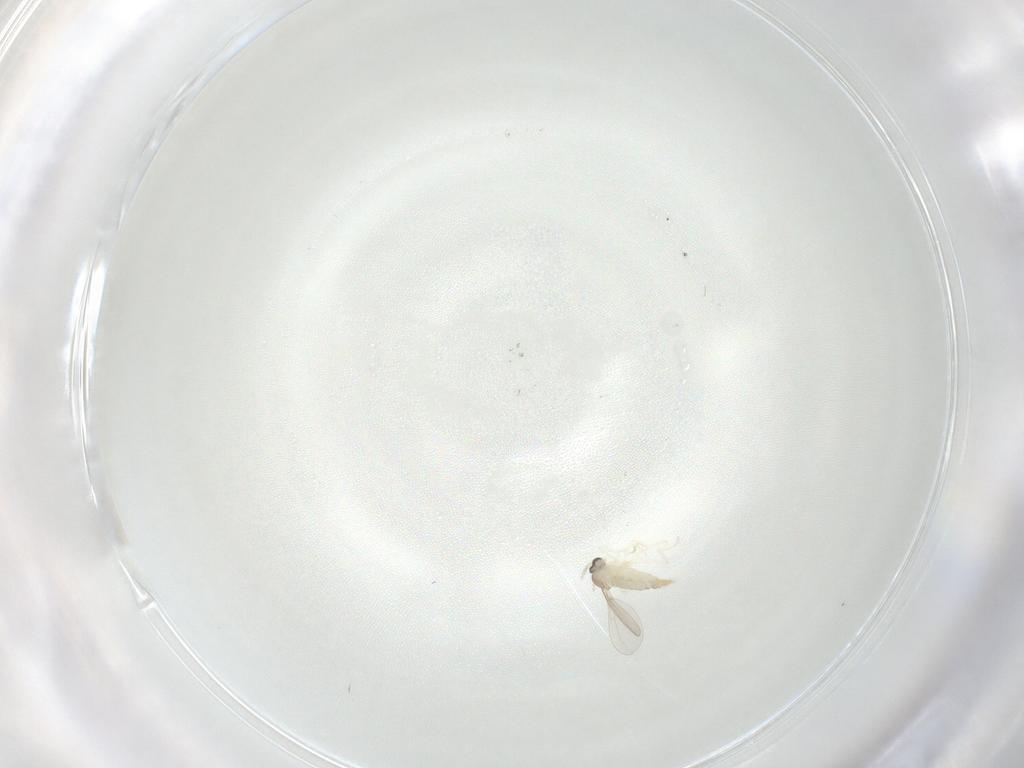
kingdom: Animalia
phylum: Arthropoda
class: Insecta
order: Diptera
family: Cecidomyiidae
